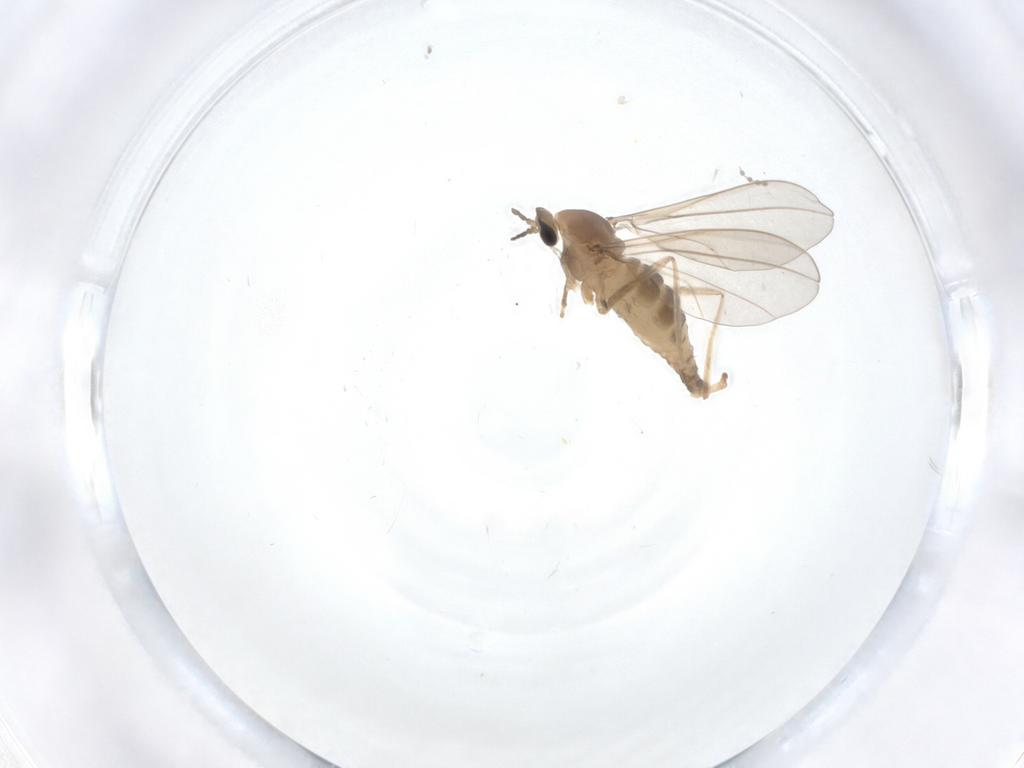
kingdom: Animalia
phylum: Arthropoda
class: Insecta
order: Diptera
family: Cecidomyiidae
